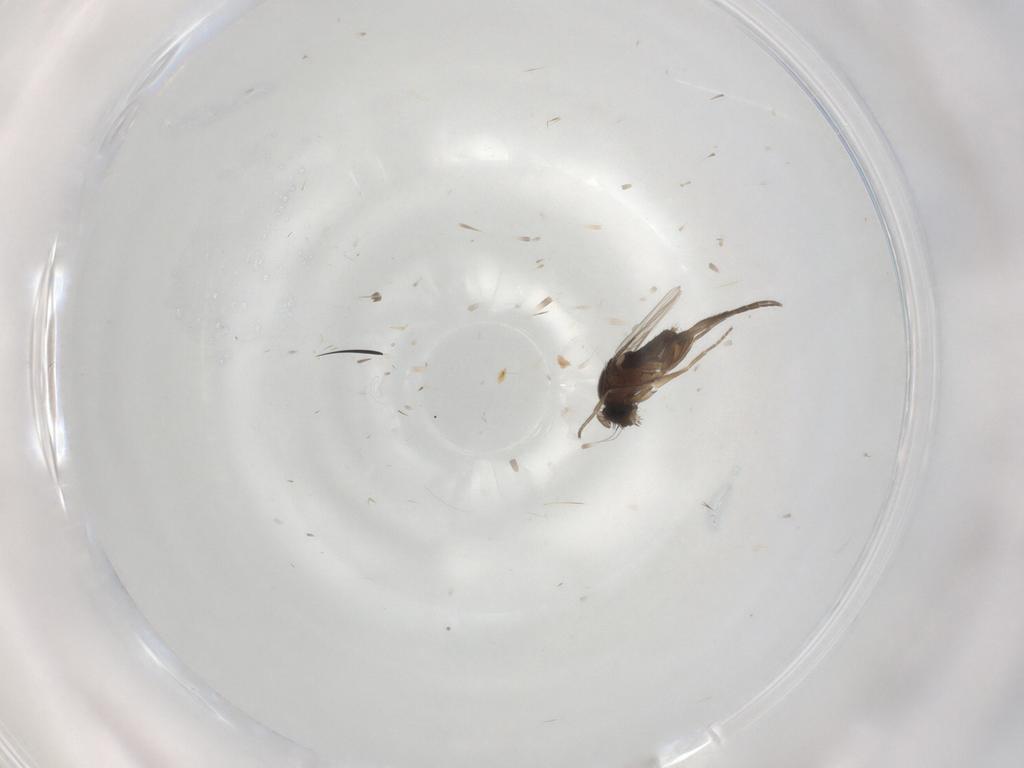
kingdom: Animalia
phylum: Arthropoda
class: Insecta
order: Diptera
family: Phoridae
